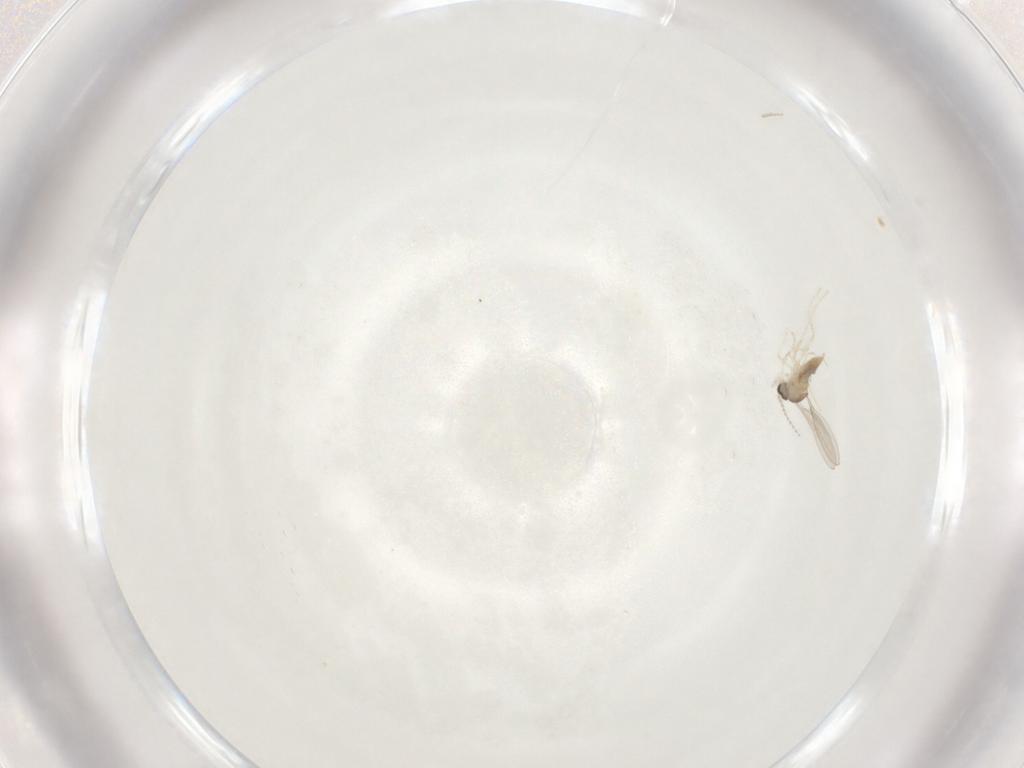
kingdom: Animalia
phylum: Arthropoda
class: Insecta
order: Diptera
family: Cecidomyiidae
